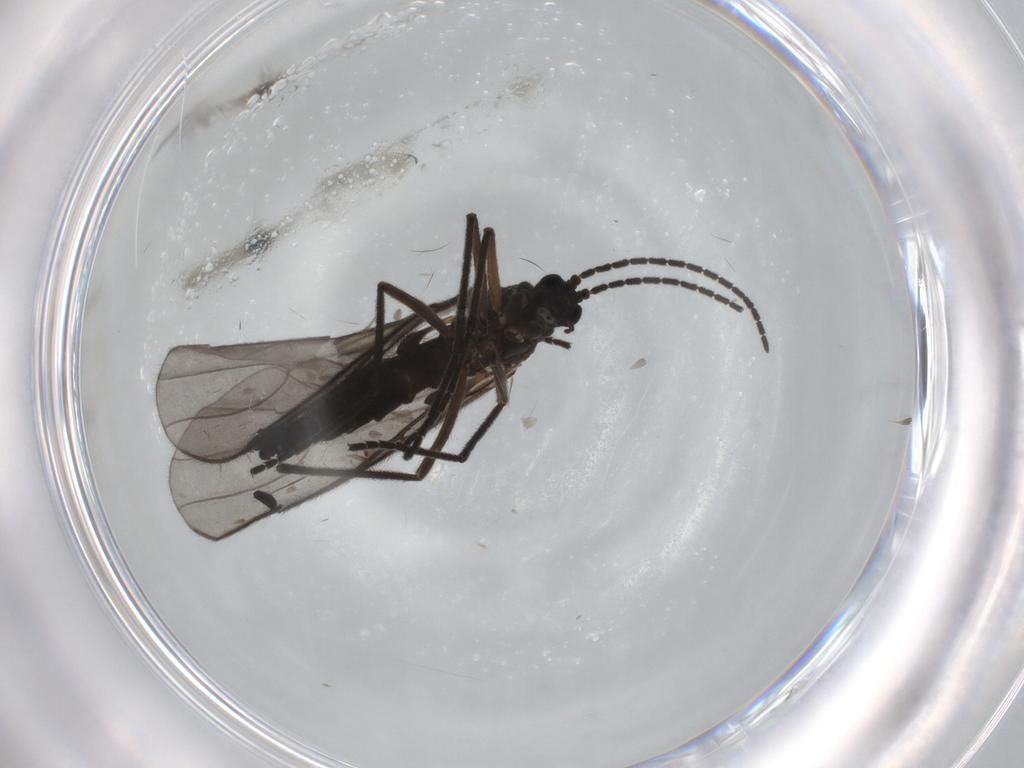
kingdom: Animalia
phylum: Arthropoda
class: Insecta
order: Diptera
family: Sciaridae
